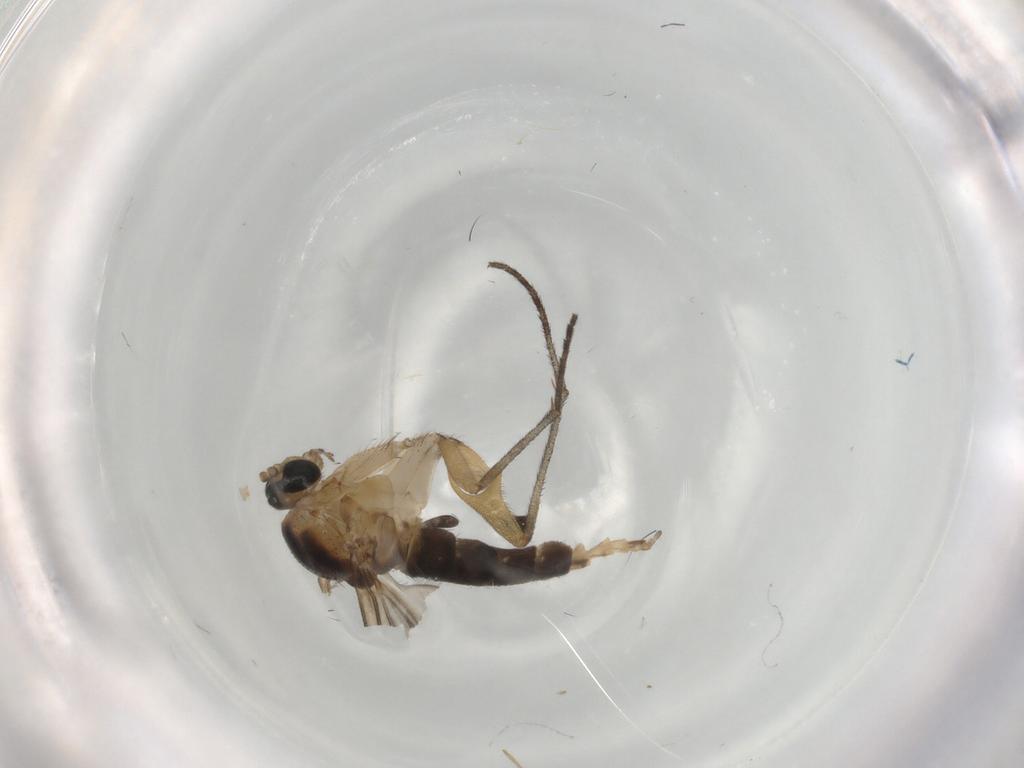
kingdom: Animalia
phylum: Arthropoda
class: Insecta
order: Diptera
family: Sciaridae
